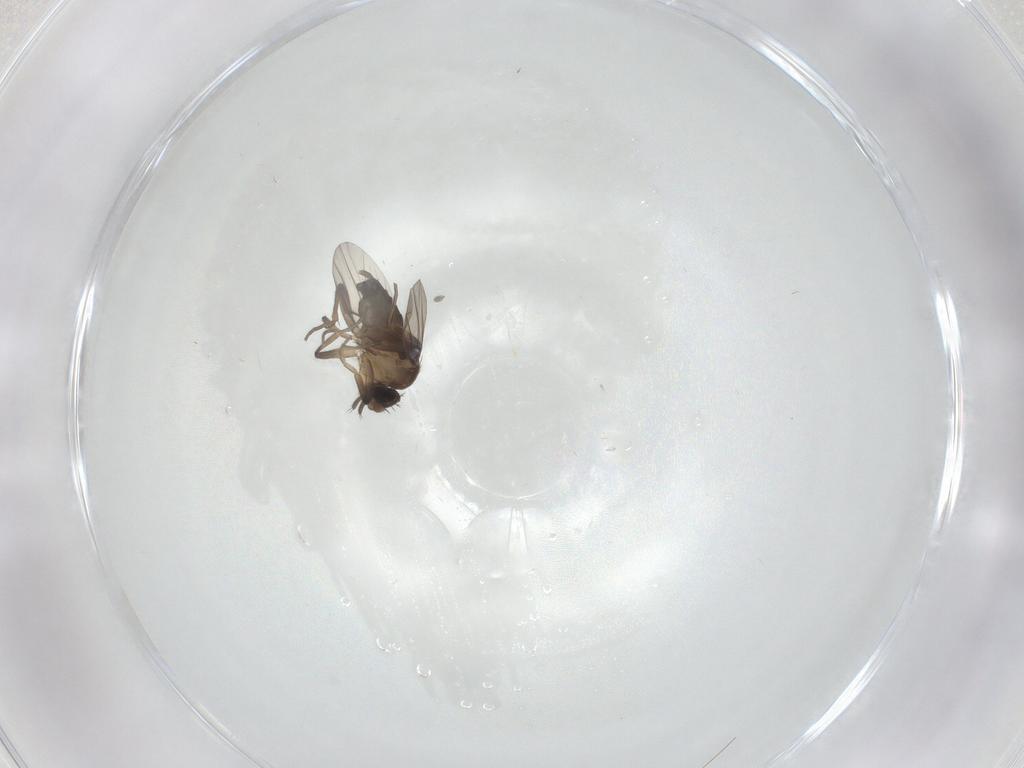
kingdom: Animalia
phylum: Arthropoda
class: Insecta
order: Diptera
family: Phoridae
